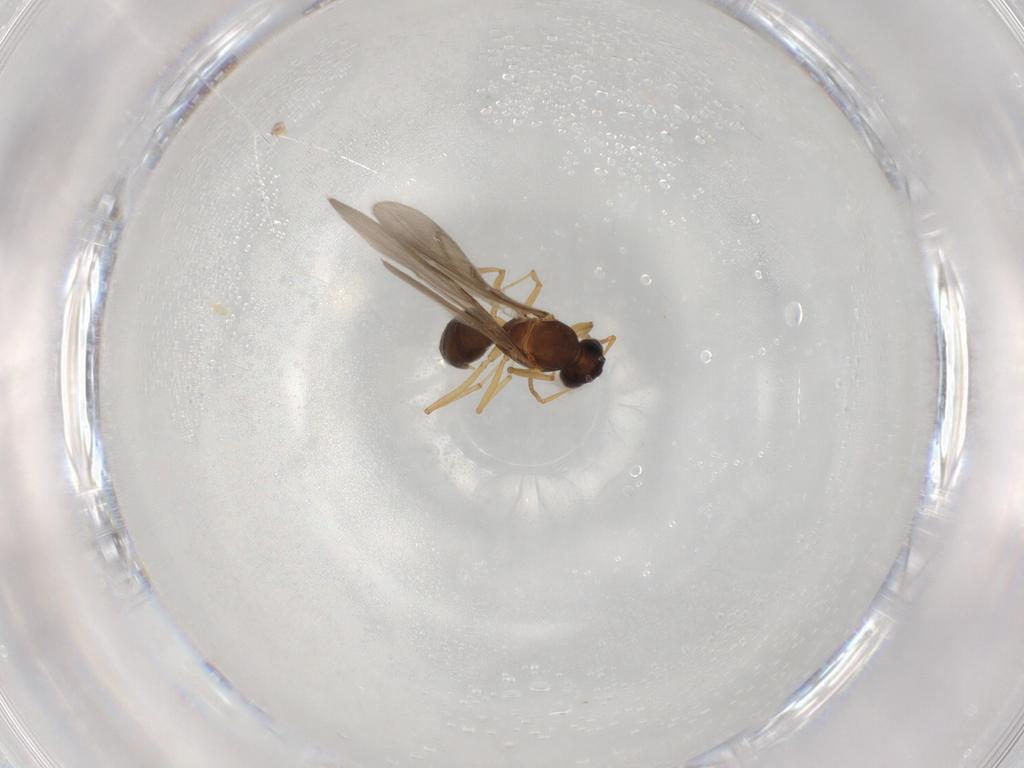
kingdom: Animalia
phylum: Arthropoda
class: Insecta
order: Hymenoptera
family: Formicidae
